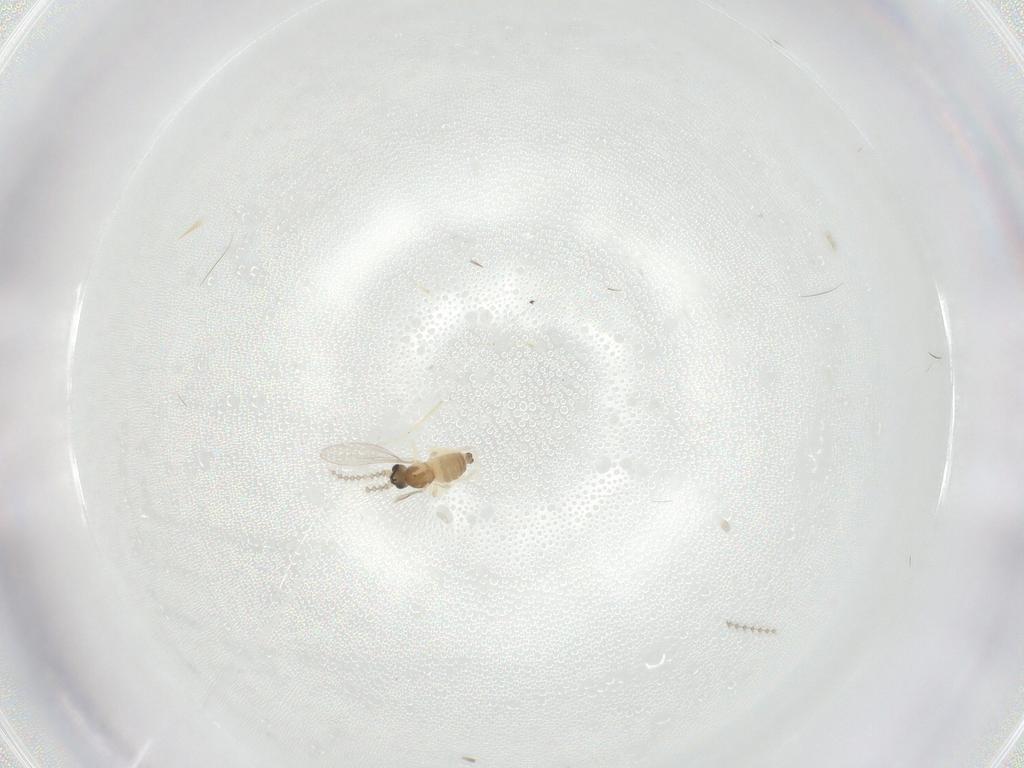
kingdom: Animalia
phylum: Arthropoda
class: Insecta
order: Diptera
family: Cecidomyiidae
